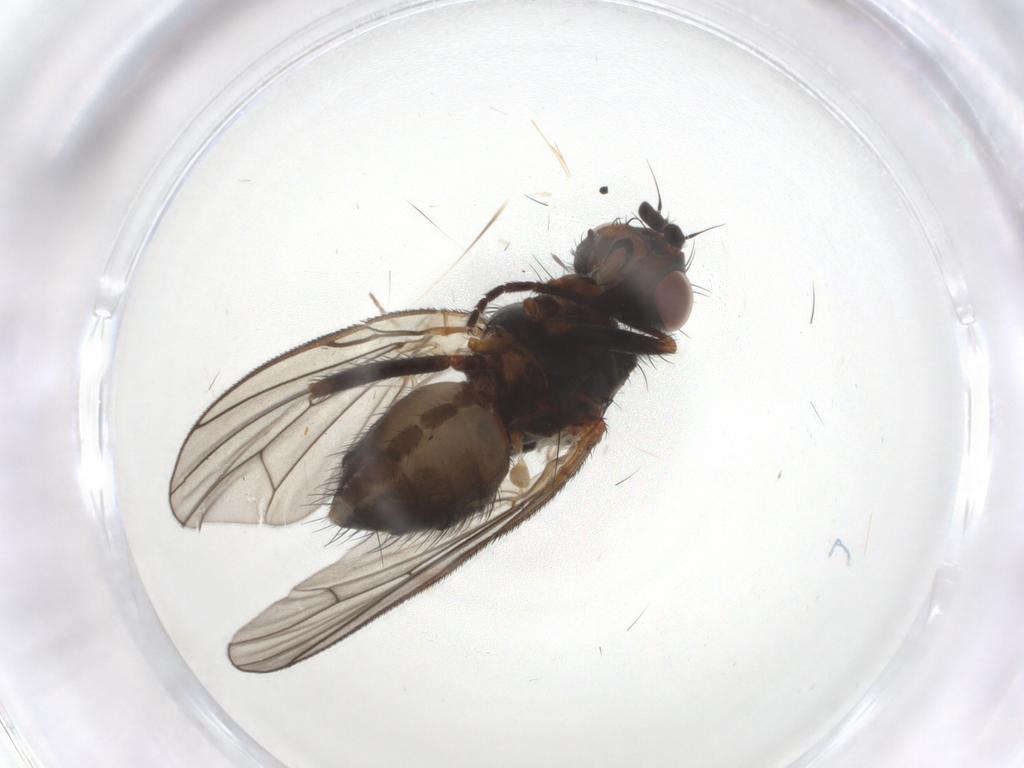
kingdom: Animalia
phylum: Arthropoda
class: Insecta
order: Diptera
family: Anthomyiidae
